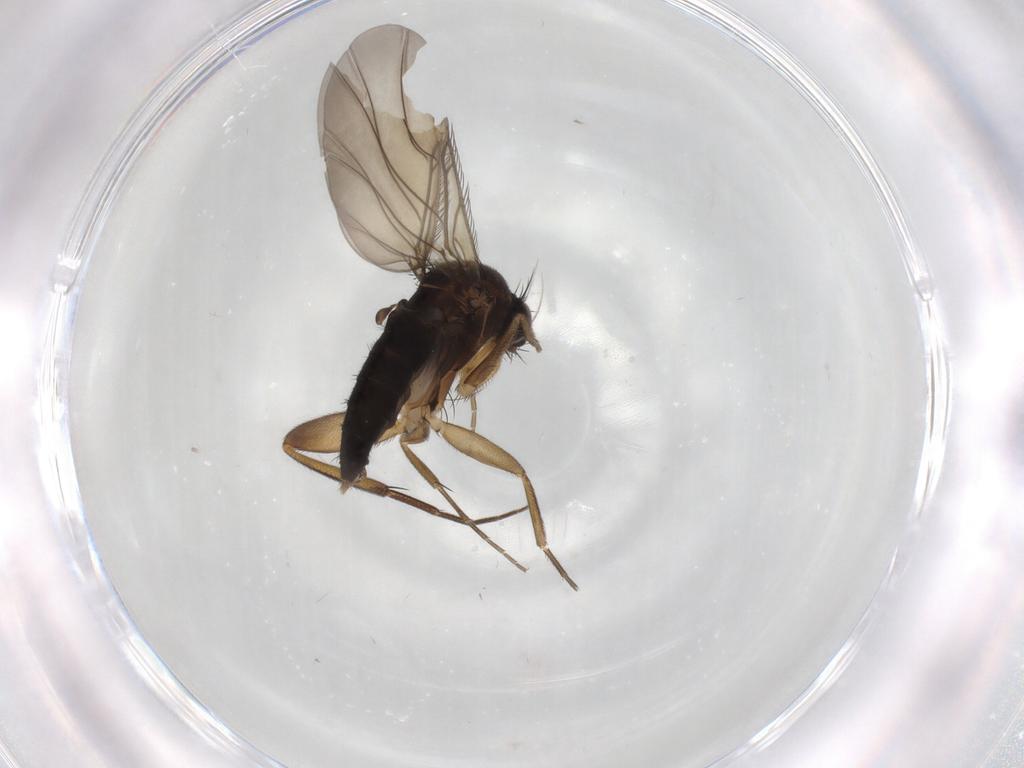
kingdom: Animalia
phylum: Arthropoda
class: Insecta
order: Diptera
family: Phoridae
